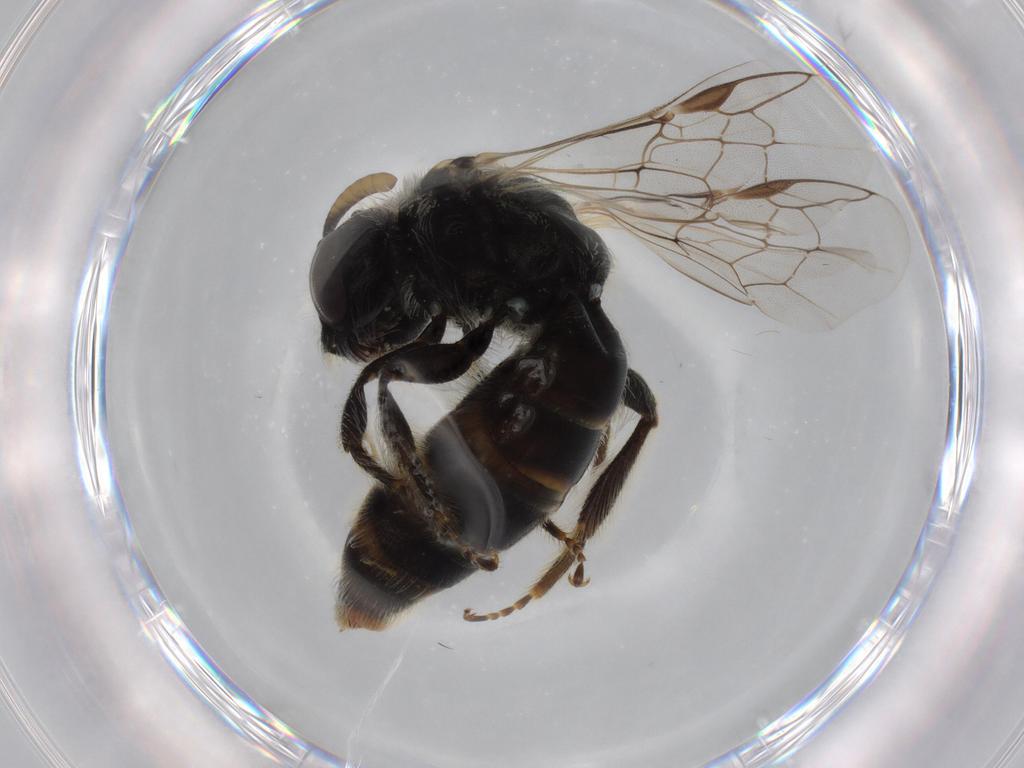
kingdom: Animalia
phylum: Arthropoda
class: Insecta
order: Hymenoptera
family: Halictidae
